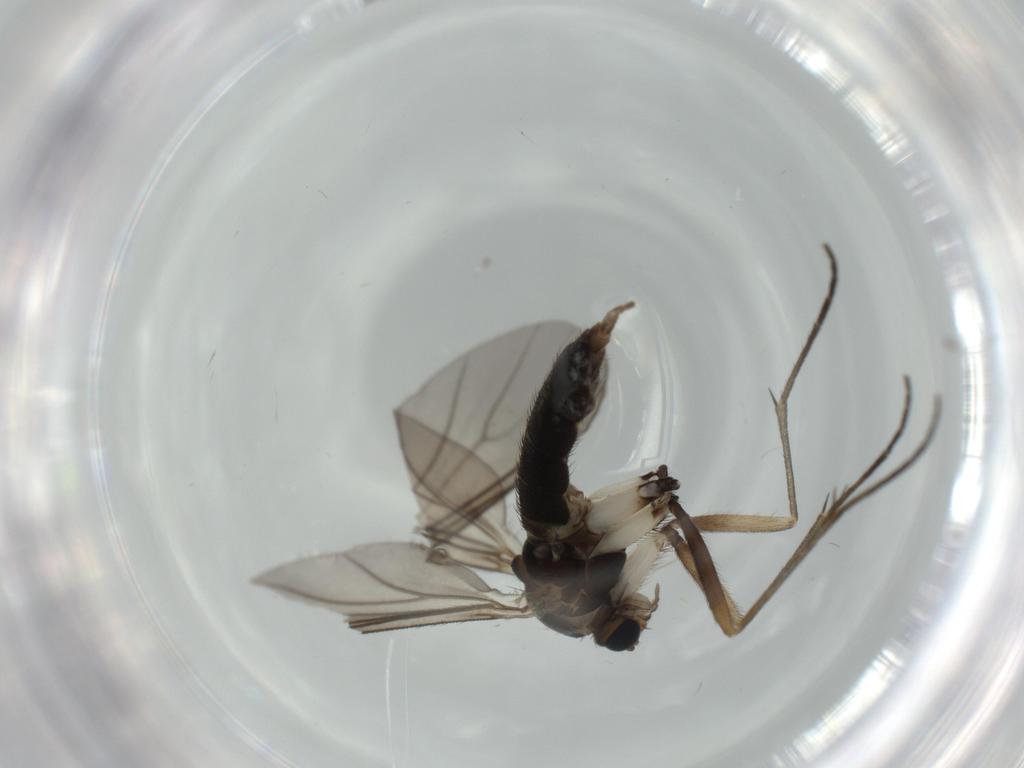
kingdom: Animalia
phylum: Arthropoda
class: Insecta
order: Diptera
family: Sciaridae
